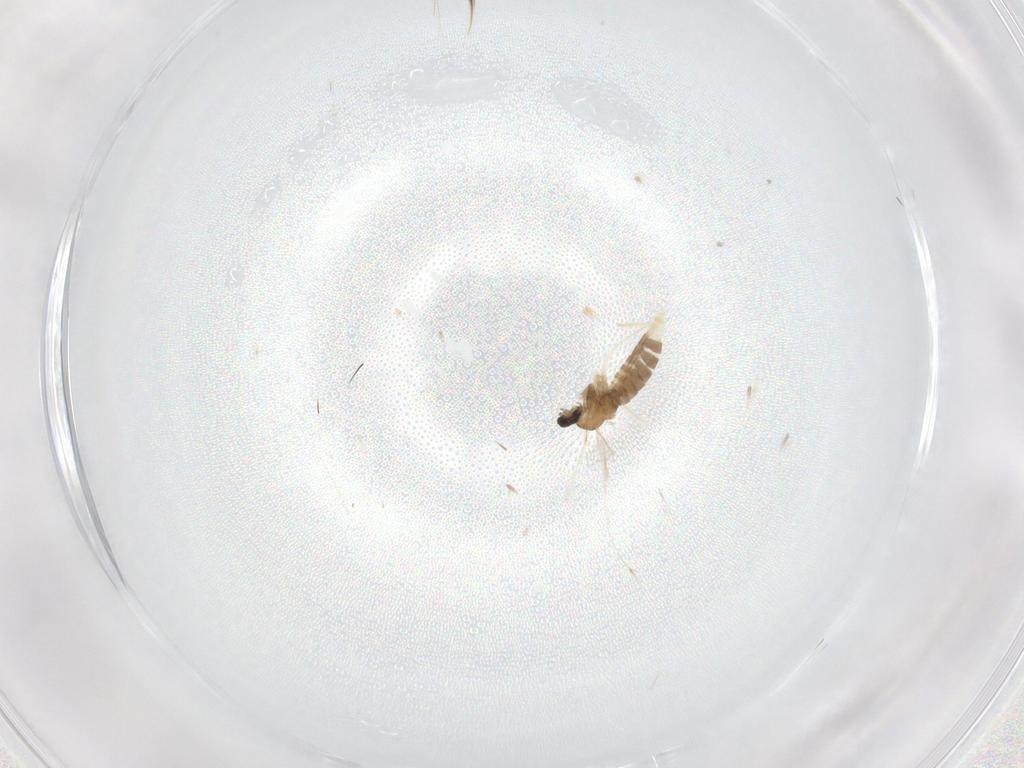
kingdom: Animalia
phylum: Arthropoda
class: Insecta
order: Diptera
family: Cecidomyiidae
